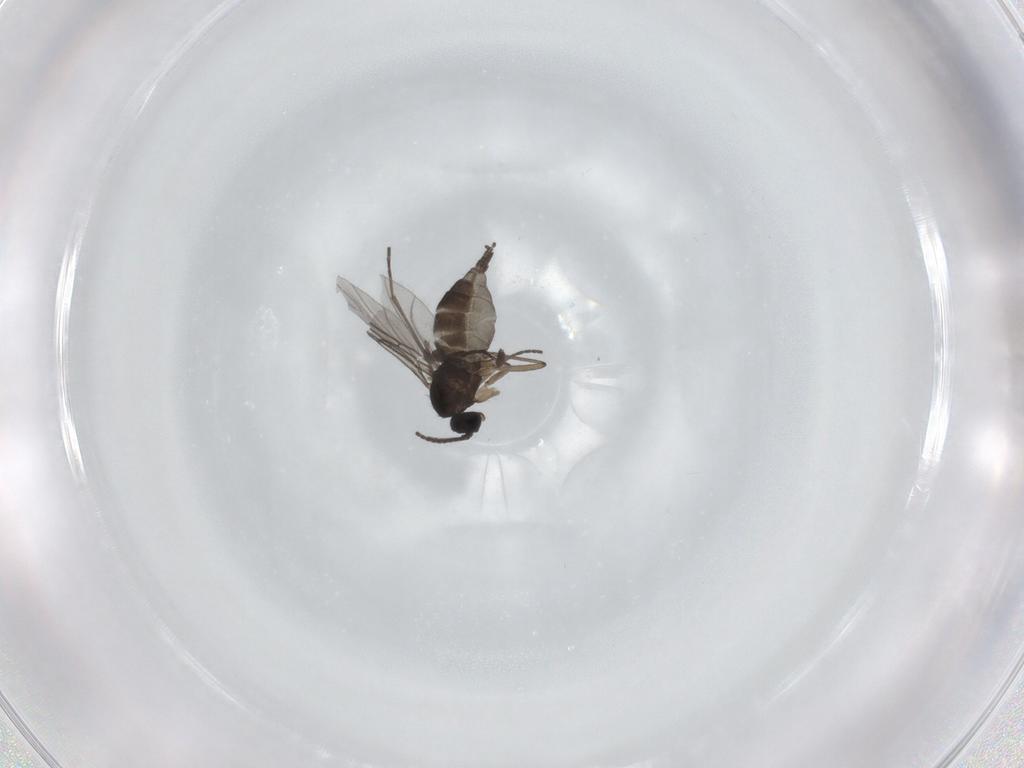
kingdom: Animalia
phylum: Arthropoda
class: Insecta
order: Diptera
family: Sciaridae
